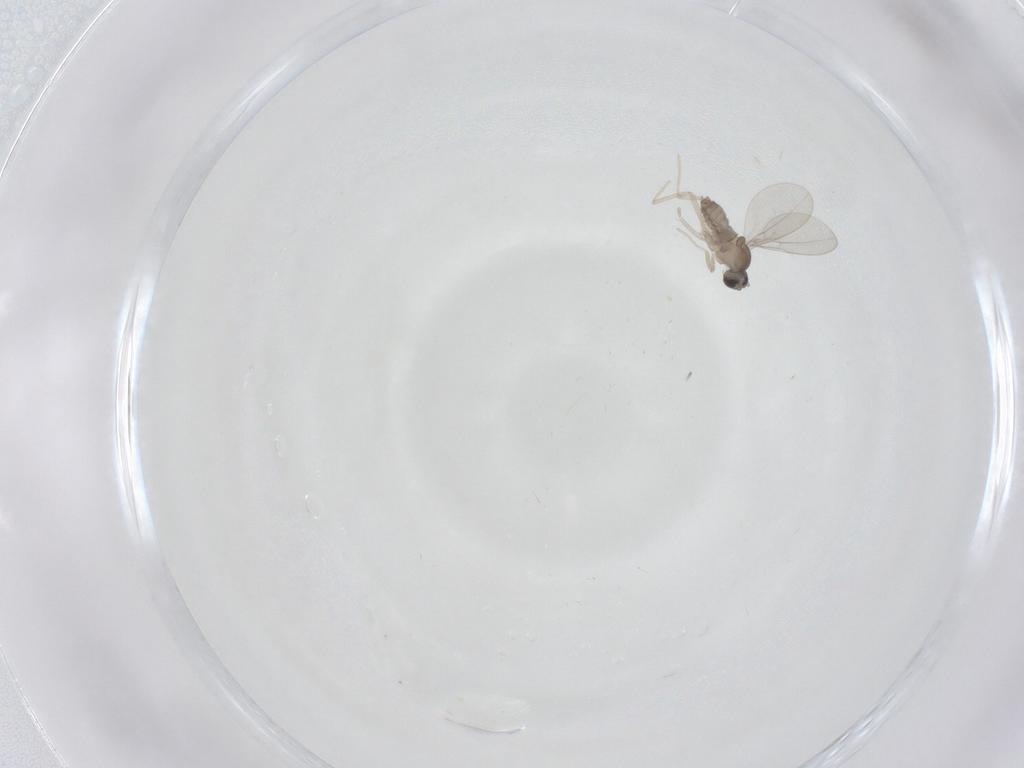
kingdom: Animalia
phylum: Arthropoda
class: Insecta
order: Diptera
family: Cecidomyiidae
